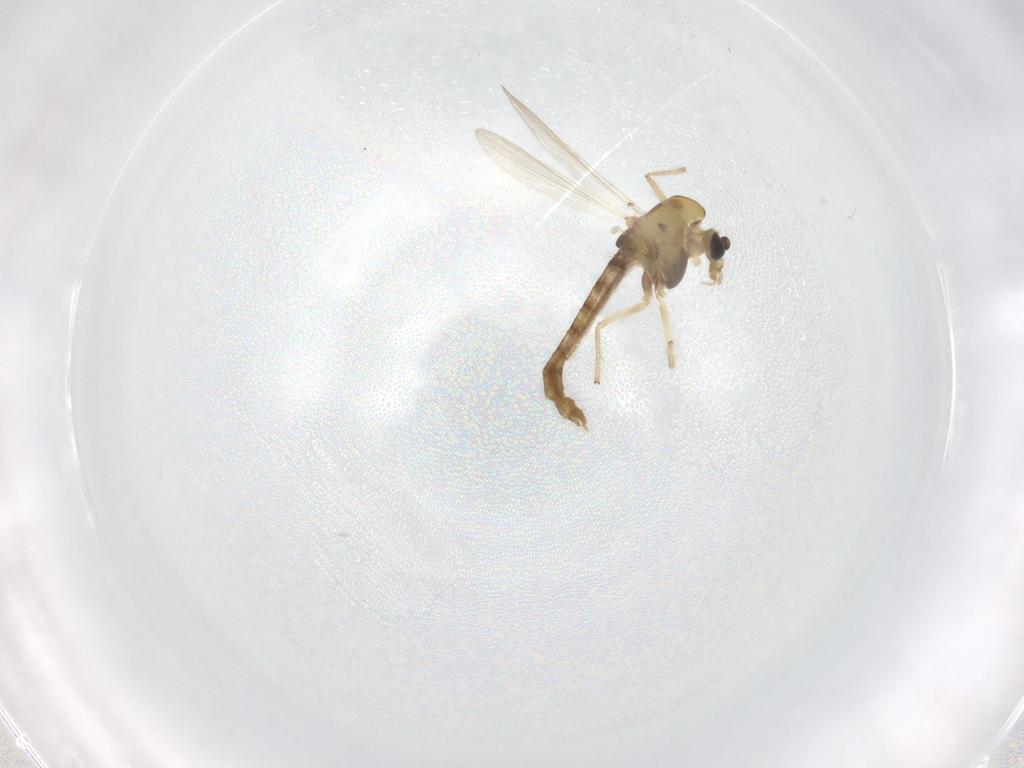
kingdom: Animalia
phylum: Arthropoda
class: Insecta
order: Diptera
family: Chironomidae
